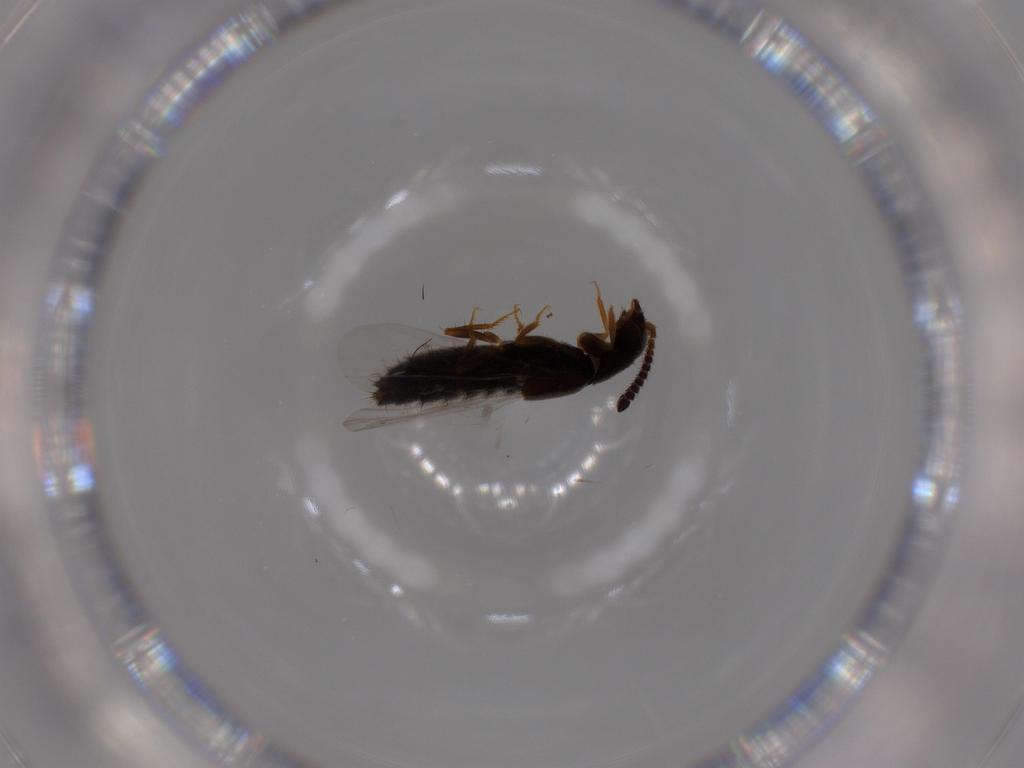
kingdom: Animalia
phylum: Arthropoda
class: Insecta
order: Coleoptera
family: Staphylinidae
